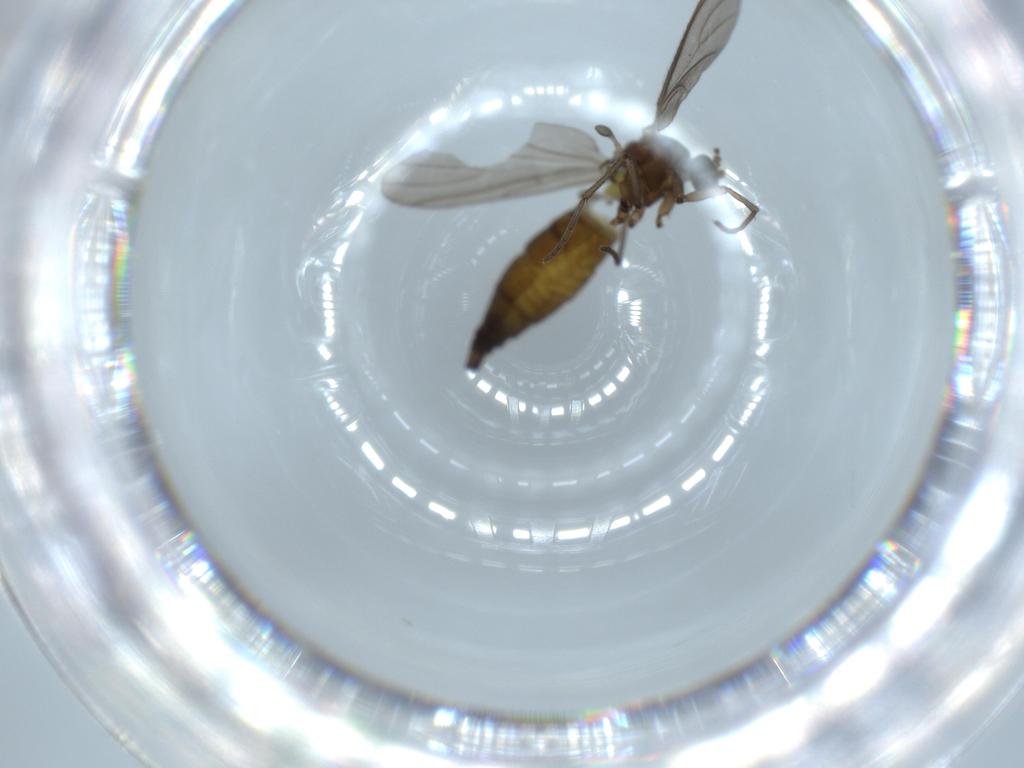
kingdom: Animalia
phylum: Arthropoda
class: Insecta
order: Diptera
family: Sciaridae
